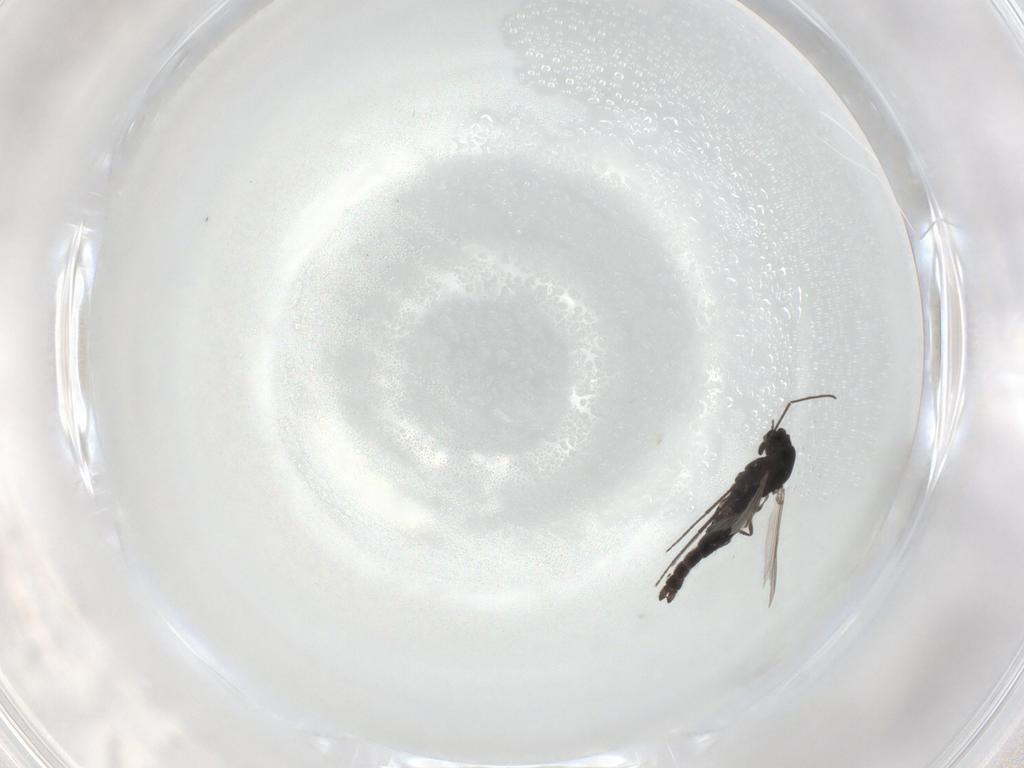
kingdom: Animalia
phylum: Arthropoda
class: Insecta
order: Diptera
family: Chironomidae
